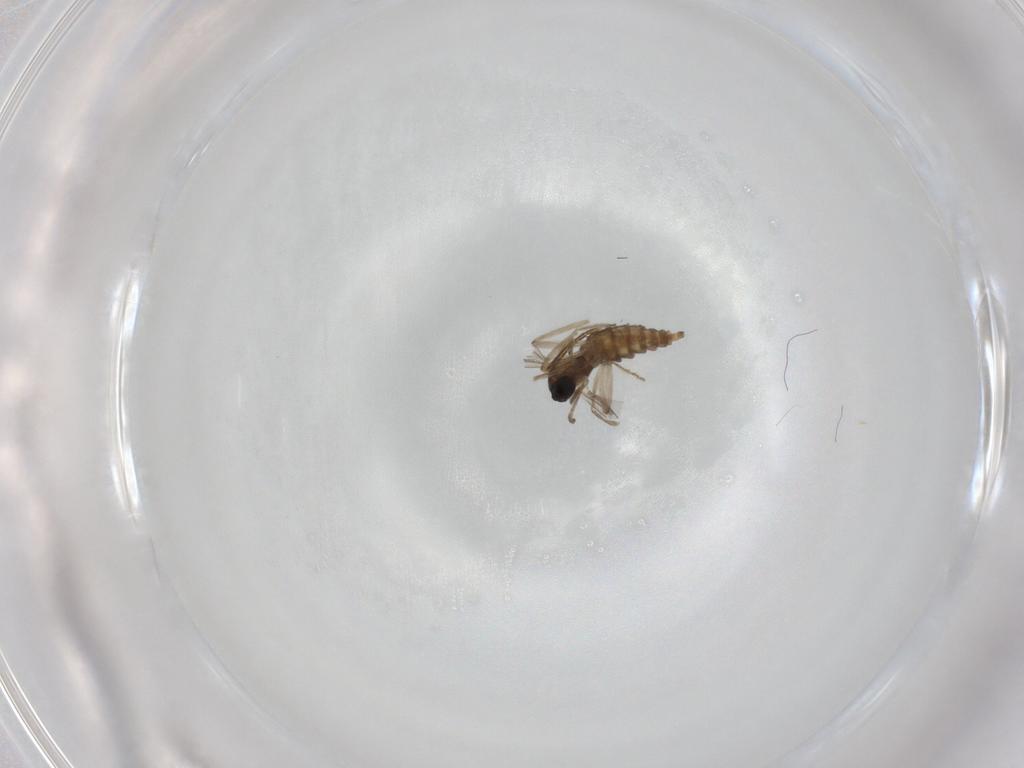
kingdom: Animalia
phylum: Arthropoda
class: Insecta
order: Diptera
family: Cecidomyiidae
